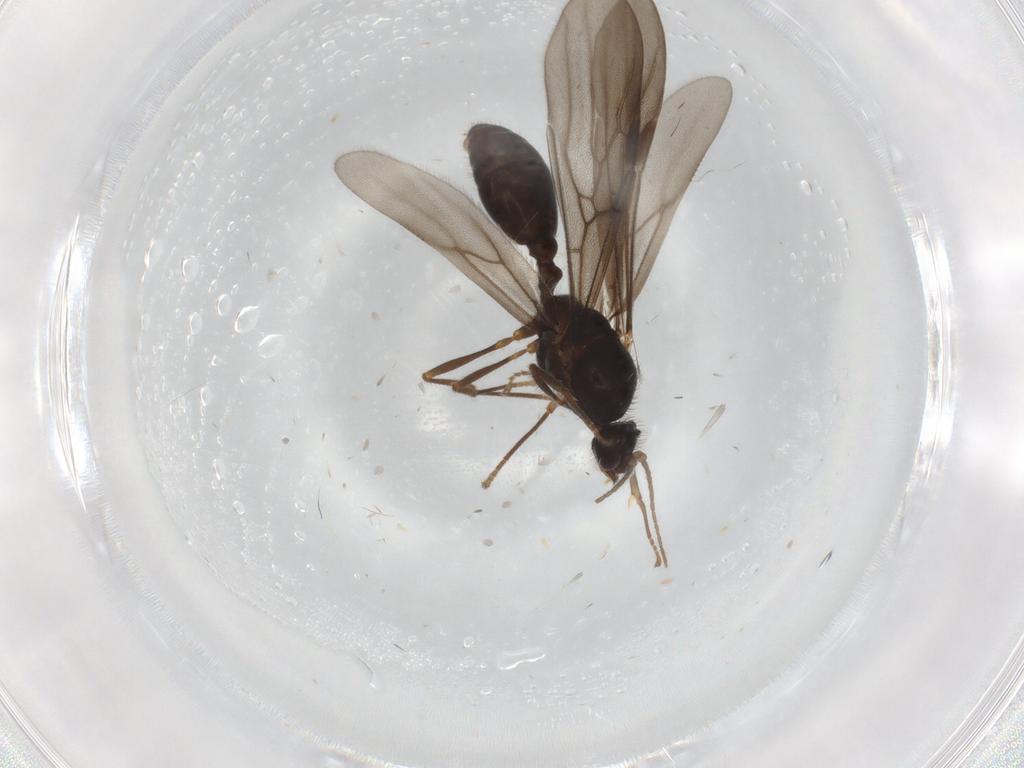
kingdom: Animalia
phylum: Arthropoda
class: Insecta
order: Hymenoptera
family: Formicidae
